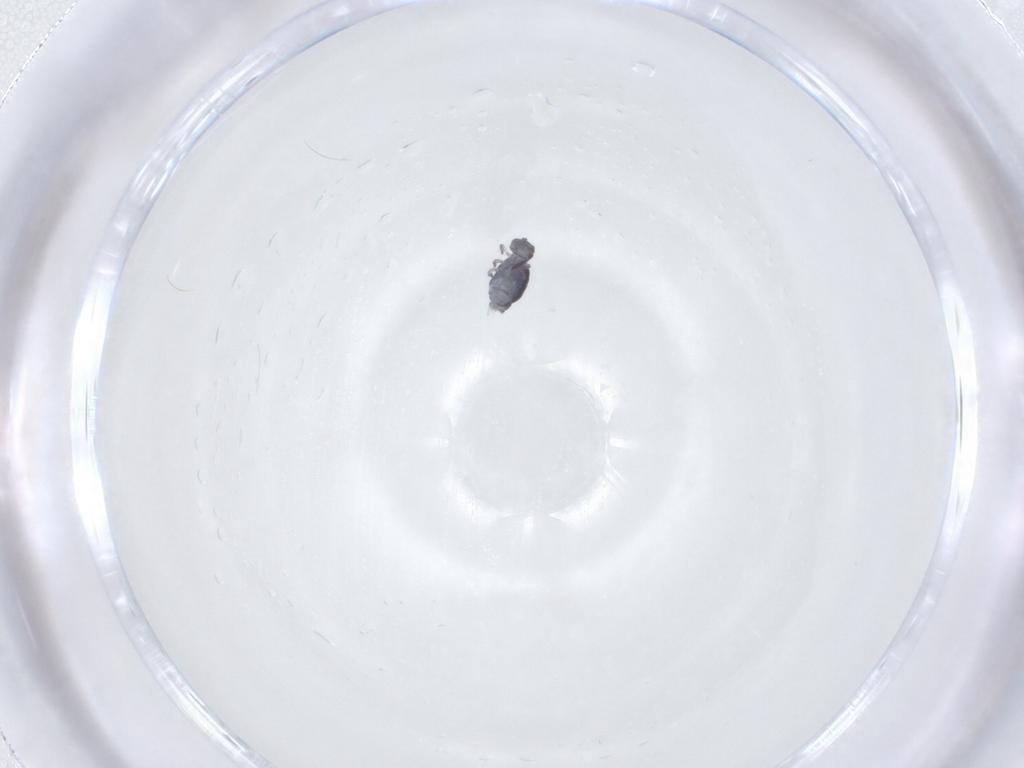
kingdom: Animalia
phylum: Arthropoda
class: Collembola
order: Symphypleona
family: Katiannidae
